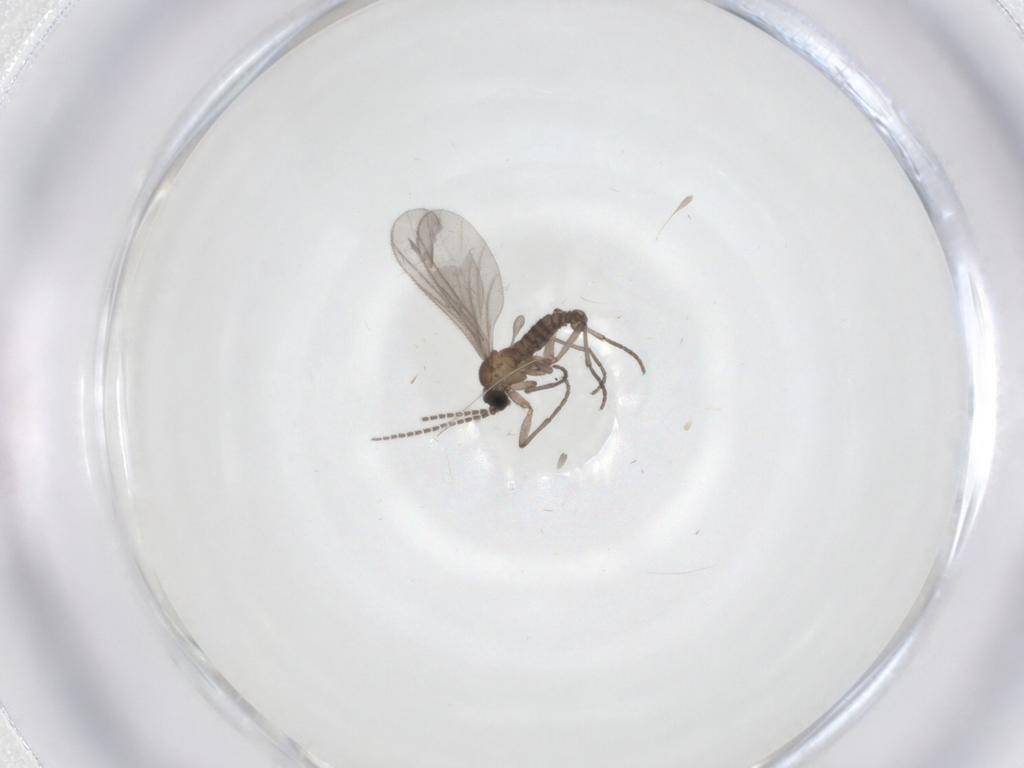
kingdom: Animalia
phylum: Arthropoda
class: Insecta
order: Diptera
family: Sciaridae
